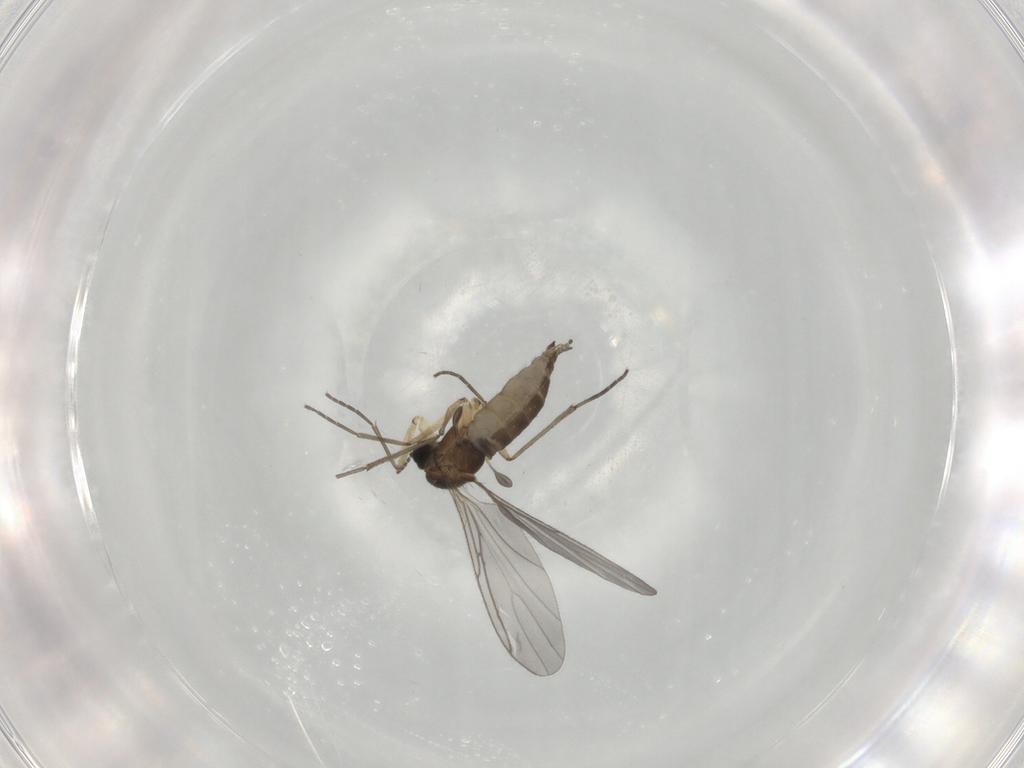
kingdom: Animalia
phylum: Arthropoda
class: Insecta
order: Diptera
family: Sciaridae
